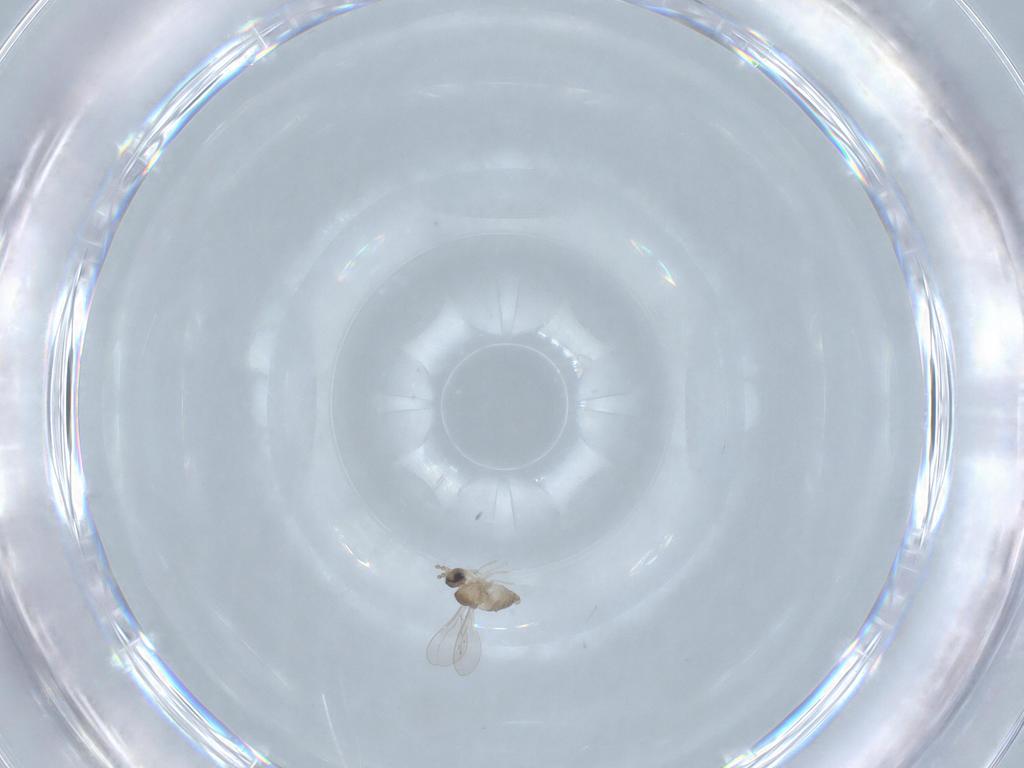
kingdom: Animalia
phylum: Arthropoda
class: Insecta
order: Diptera
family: Cecidomyiidae
